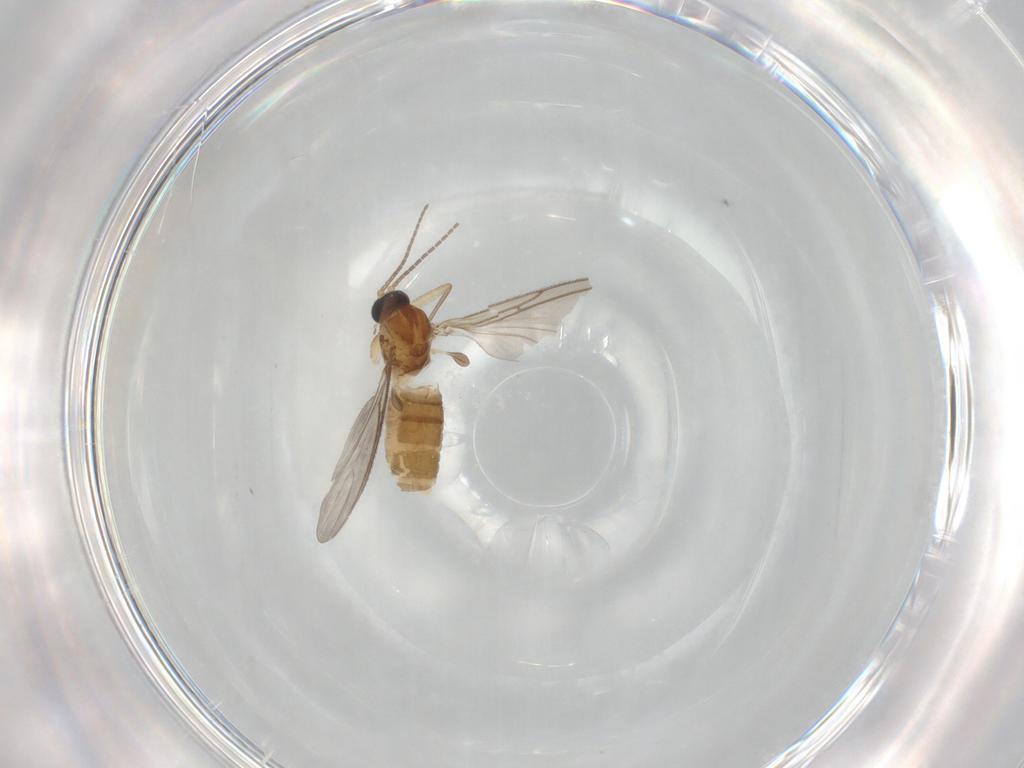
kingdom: Animalia
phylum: Arthropoda
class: Insecta
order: Diptera
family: Sciaridae
